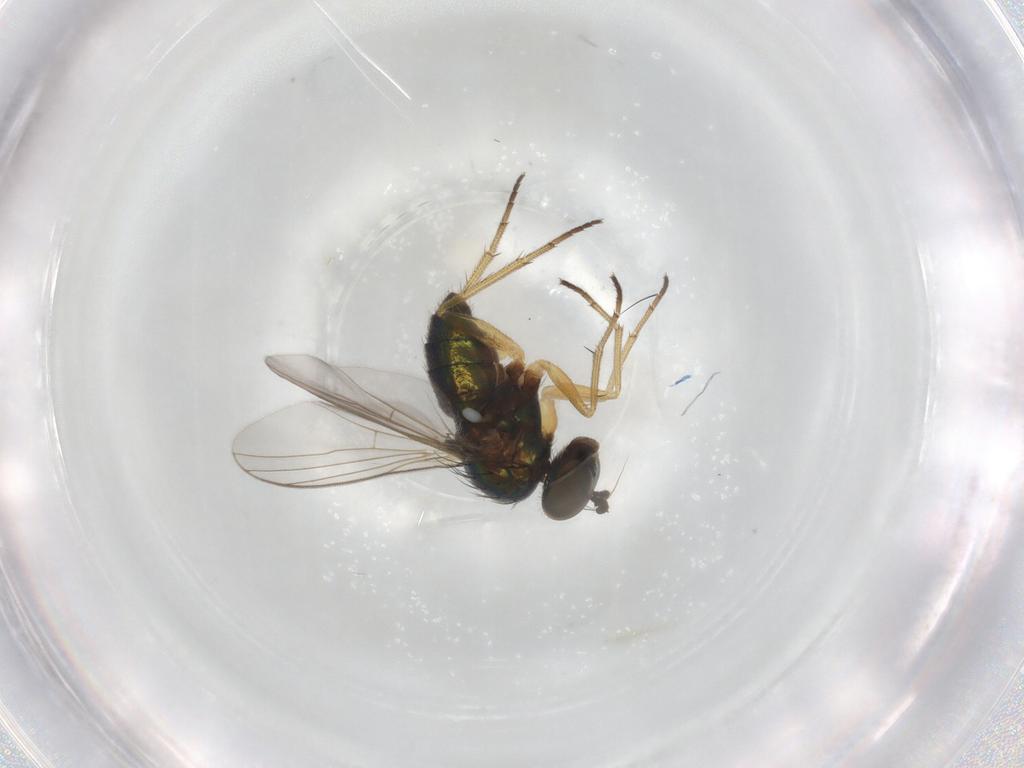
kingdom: Animalia
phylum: Arthropoda
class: Insecta
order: Diptera
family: Dolichopodidae
